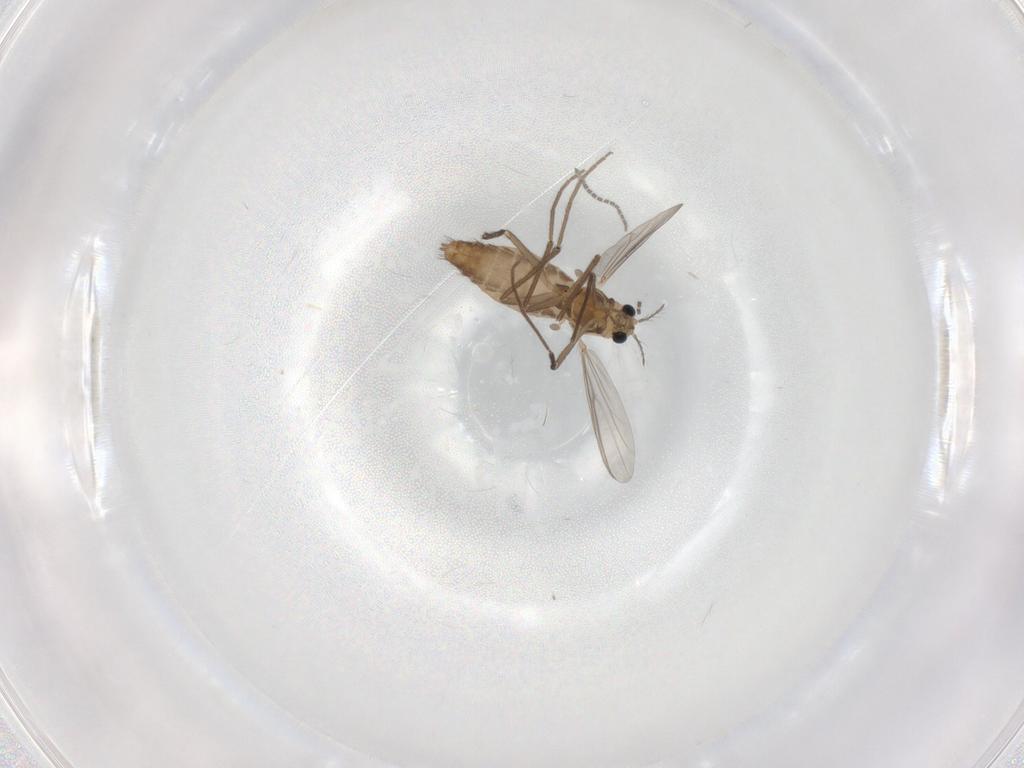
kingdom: Animalia
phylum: Arthropoda
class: Insecta
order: Diptera
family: Chironomidae
